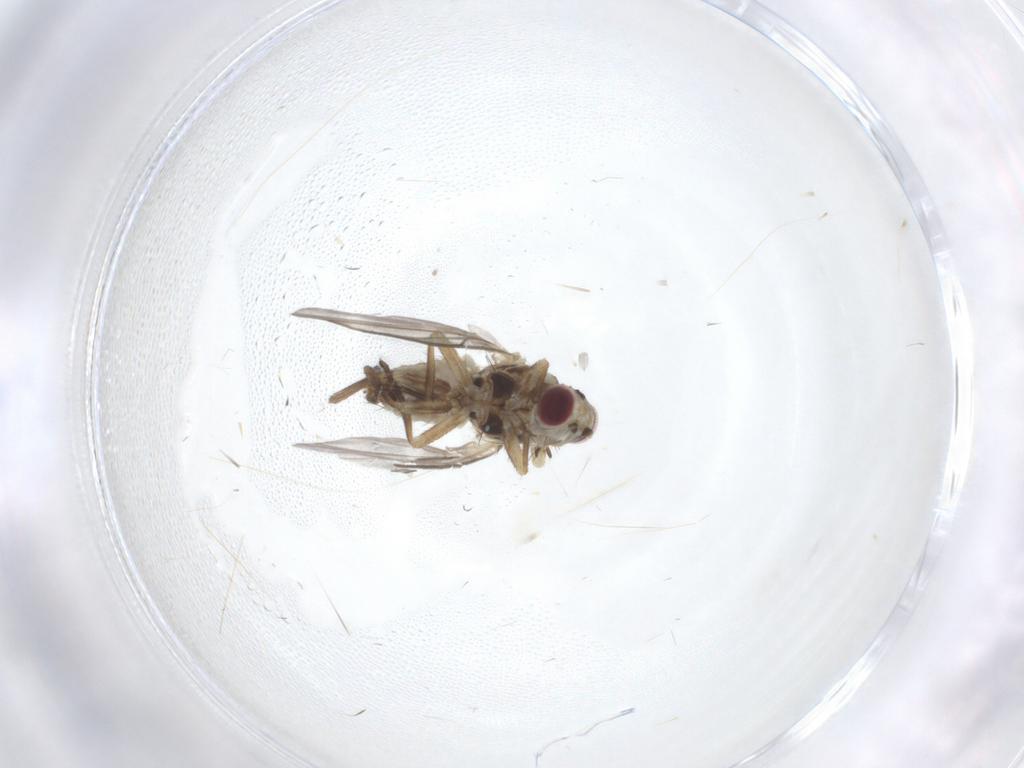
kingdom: Animalia
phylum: Arthropoda
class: Insecta
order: Diptera
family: Agromyzidae
